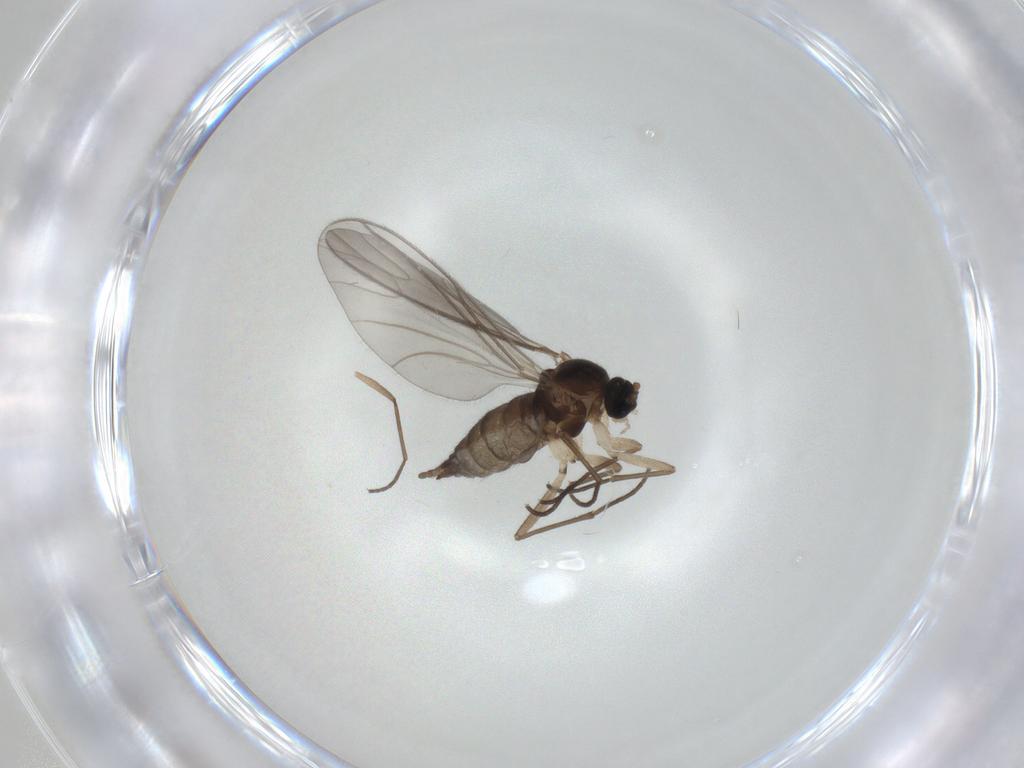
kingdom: Animalia
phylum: Arthropoda
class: Insecta
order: Diptera
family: Sciaridae
